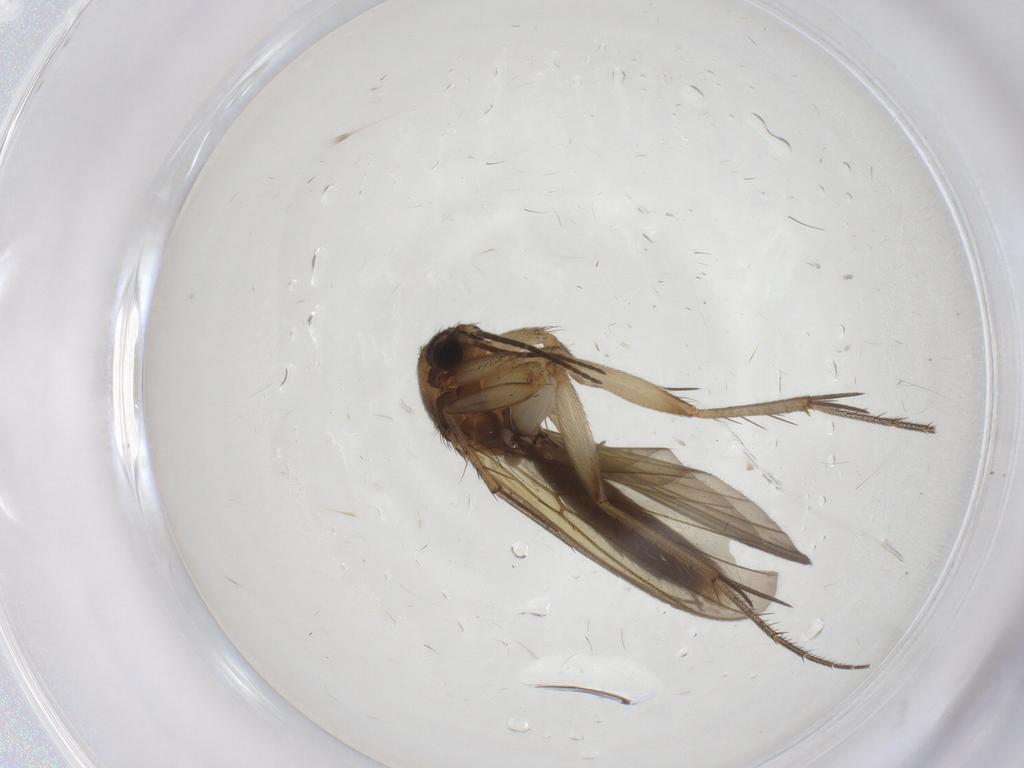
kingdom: Animalia
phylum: Arthropoda
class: Insecta
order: Diptera
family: Mycetophilidae
